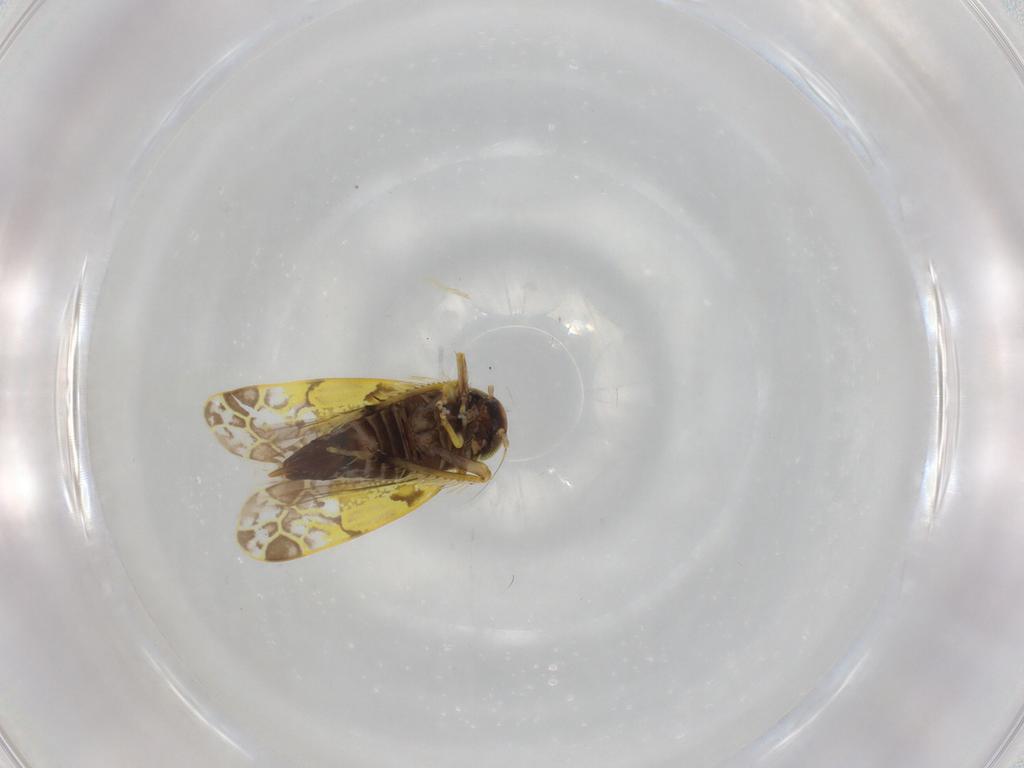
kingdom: Animalia
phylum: Arthropoda
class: Insecta
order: Hemiptera
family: Cicadellidae
